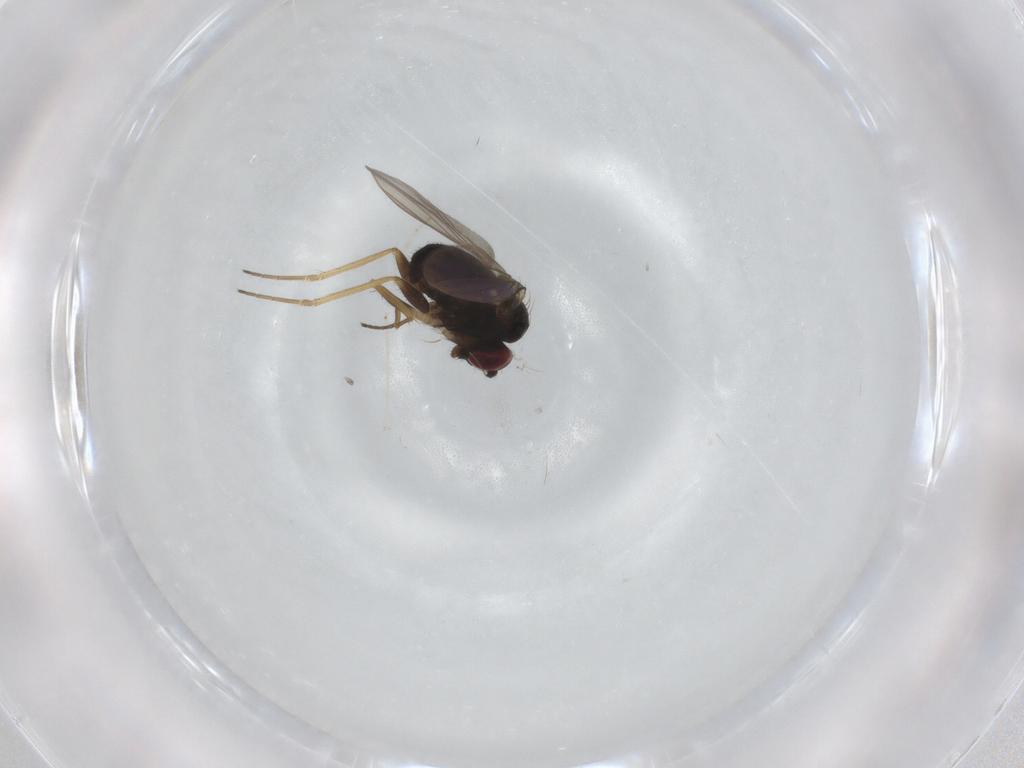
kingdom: Animalia
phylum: Arthropoda
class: Insecta
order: Diptera
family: Dolichopodidae
